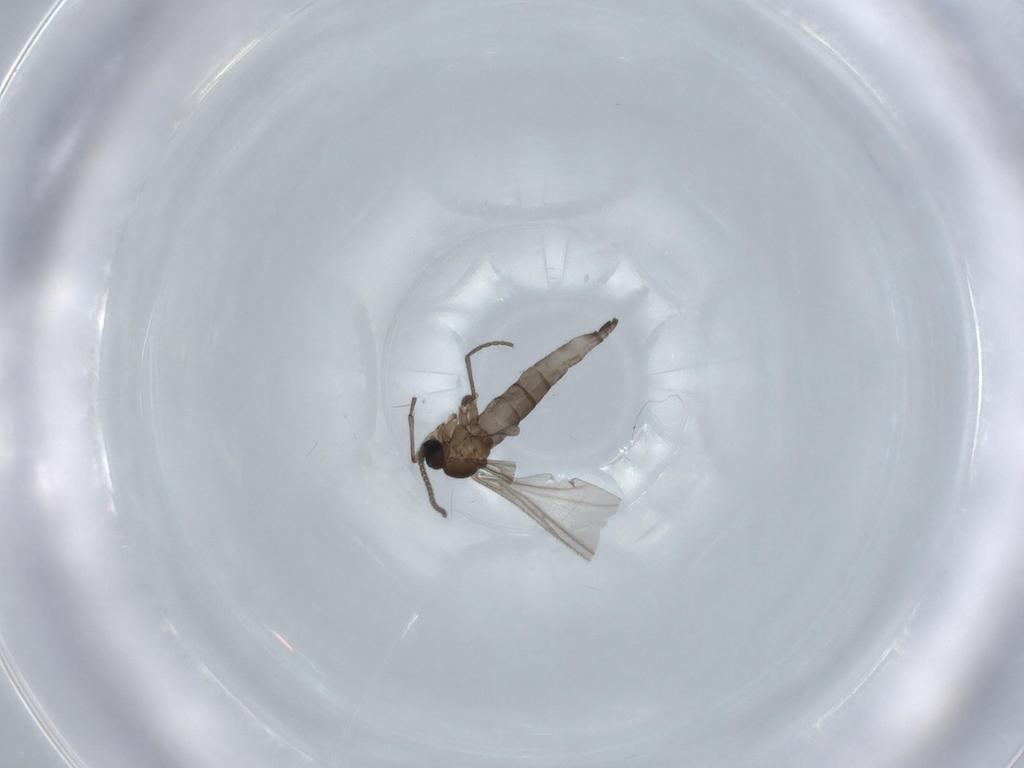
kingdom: Animalia
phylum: Arthropoda
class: Insecta
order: Diptera
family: Sciaridae
